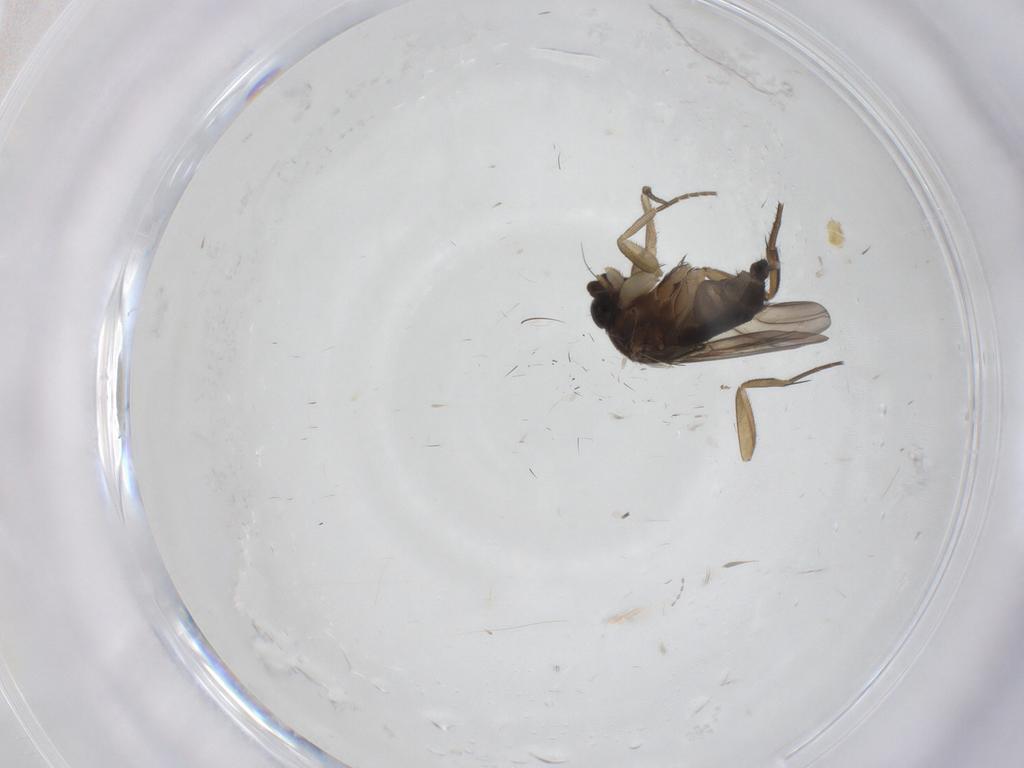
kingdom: Animalia
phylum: Arthropoda
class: Insecta
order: Diptera
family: Phoridae
